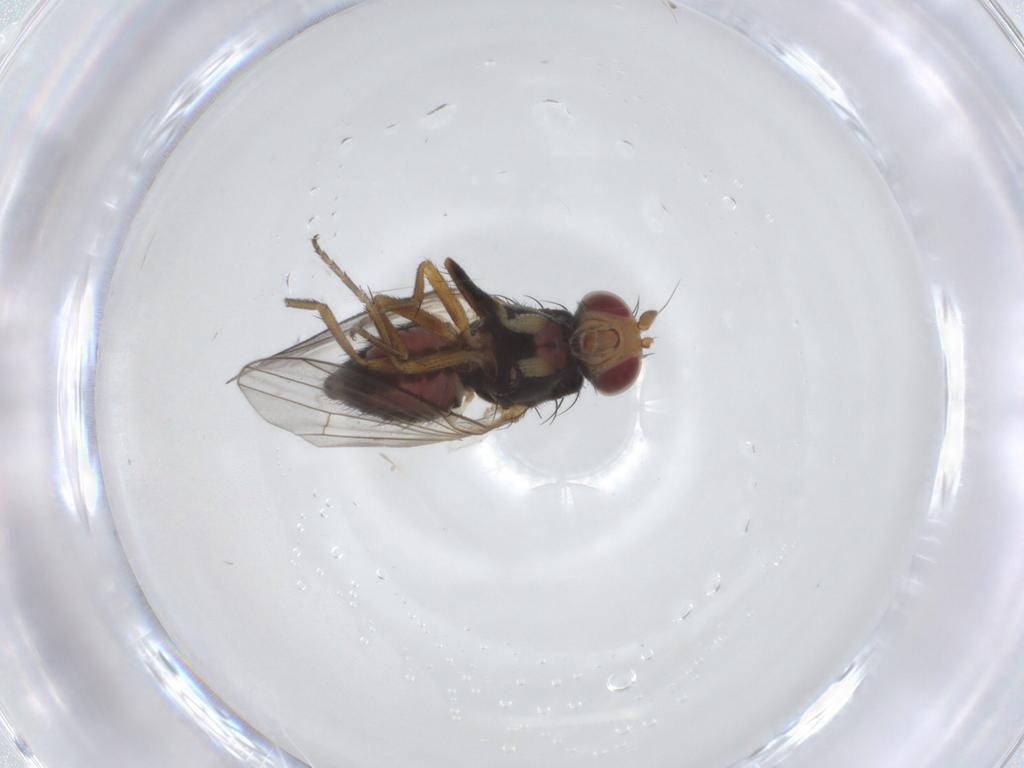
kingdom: Animalia
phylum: Arthropoda
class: Insecta
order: Diptera
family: Heleomyzidae
